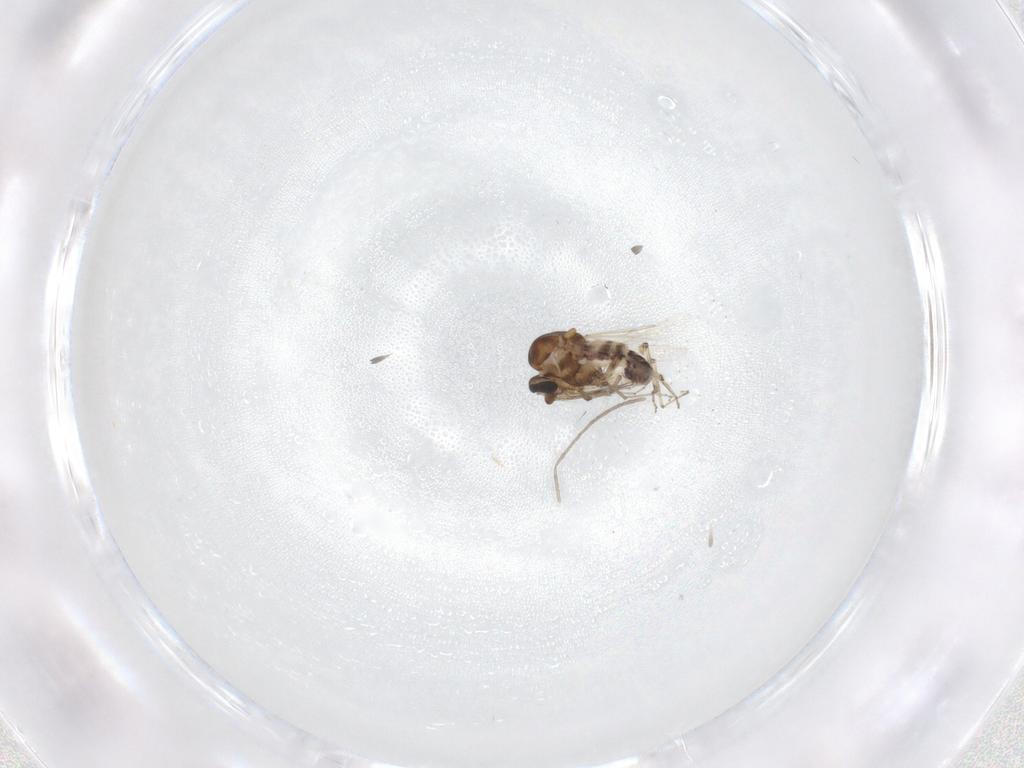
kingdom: Animalia
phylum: Arthropoda
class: Insecta
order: Diptera
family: Ceratopogonidae
